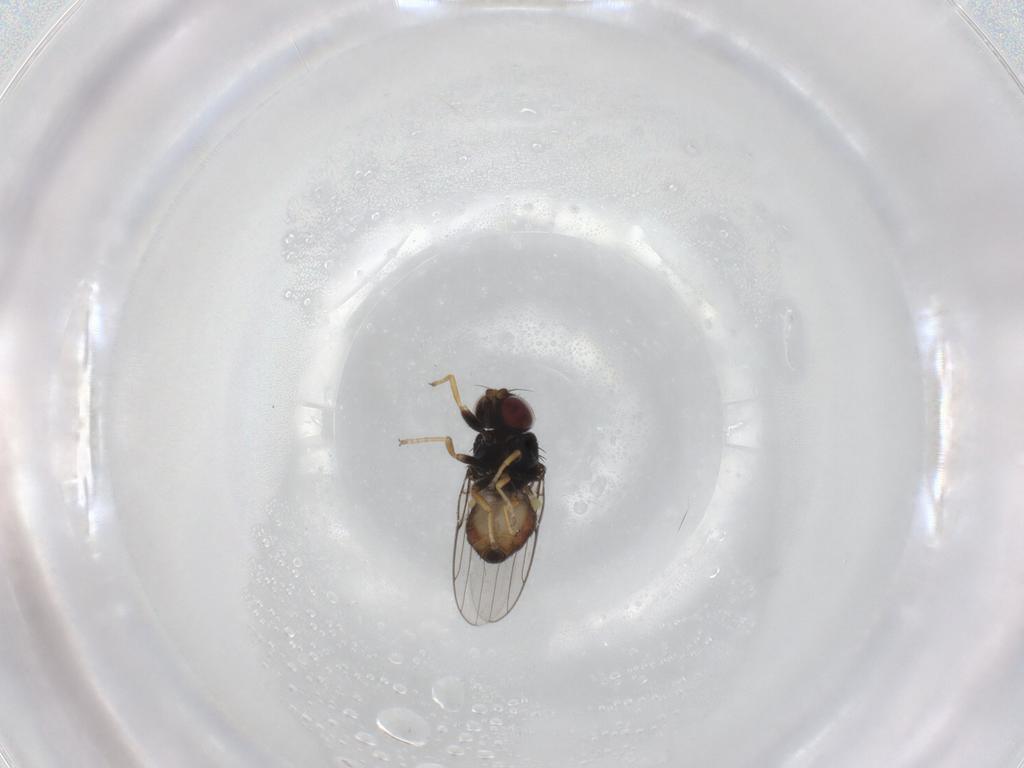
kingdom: Animalia
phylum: Arthropoda
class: Insecta
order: Diptera
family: Chloropidae
